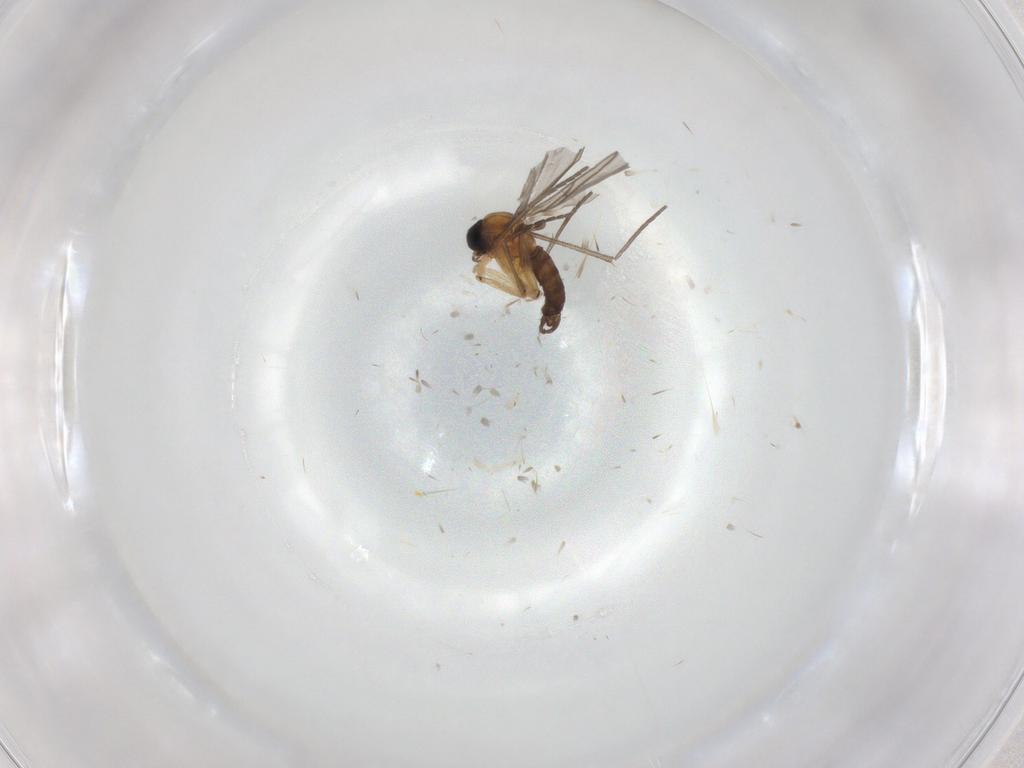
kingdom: Animalia
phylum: Arthropoda
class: Insecta
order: Diptera
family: Sciaridae
